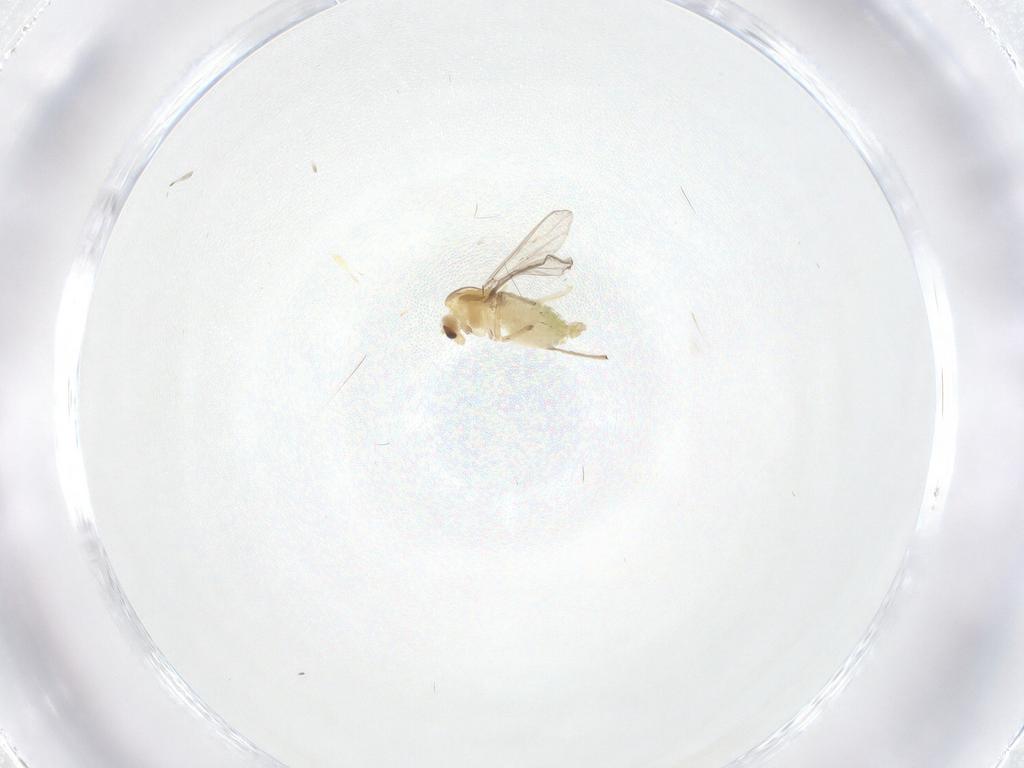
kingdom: Animalia
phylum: Arthropoda
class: Insecta
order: Diptera
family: Chironomidae
